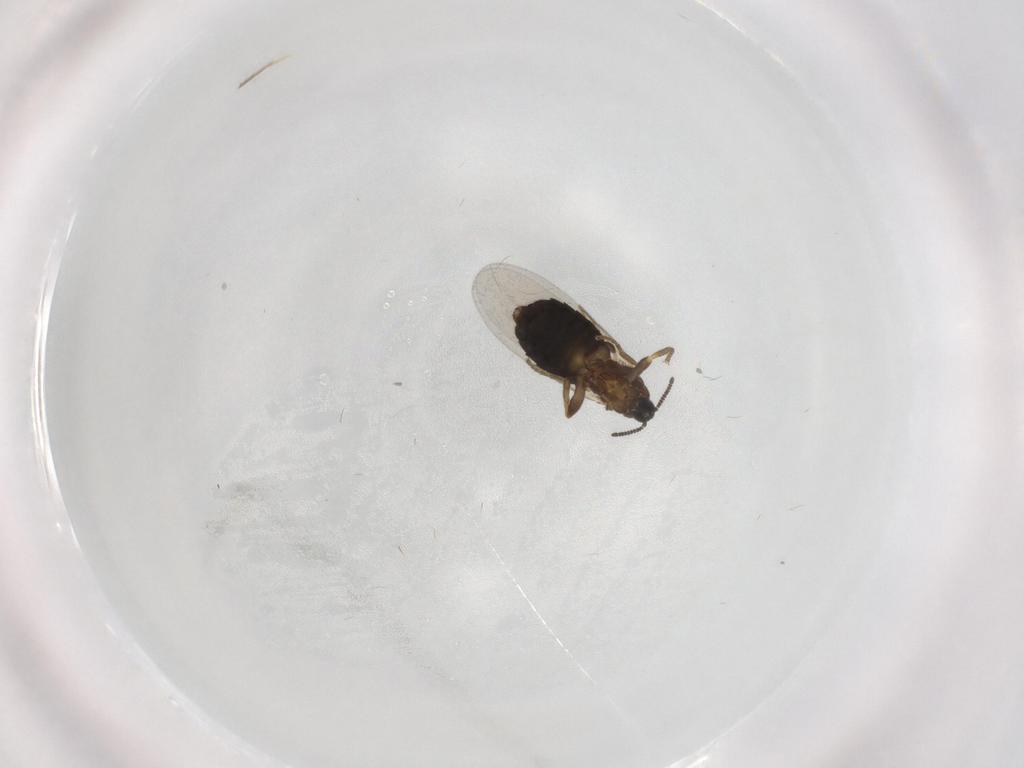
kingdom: Animalia
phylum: Arthropoda
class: Insecta
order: Diptera
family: Scatopsidae
